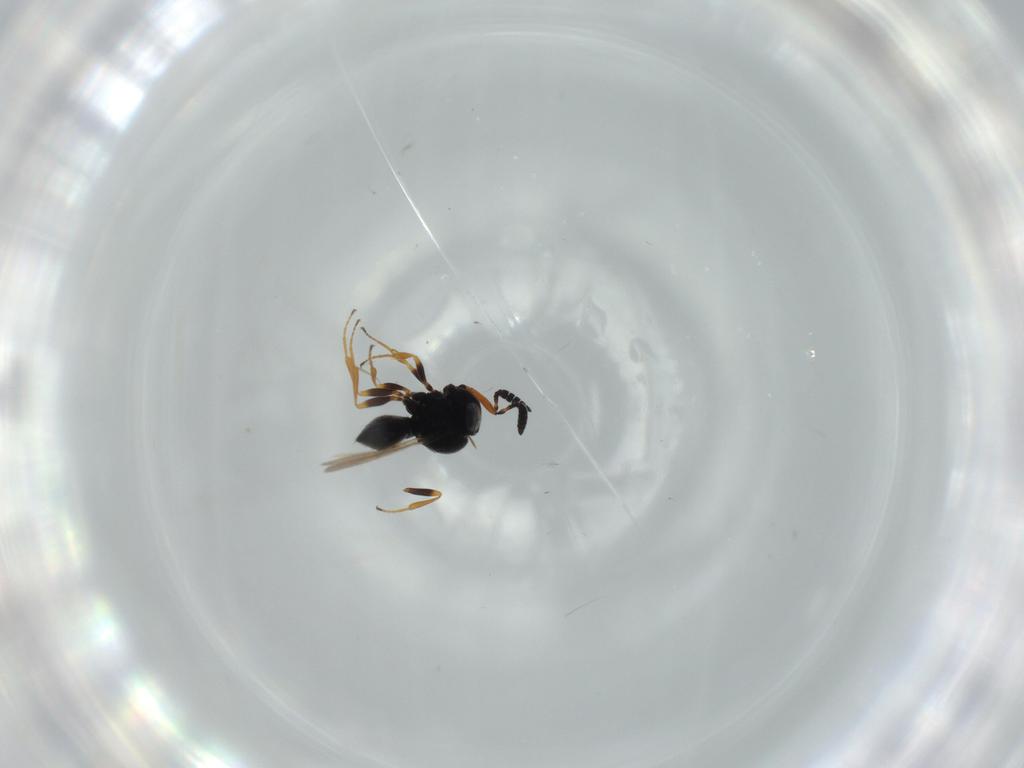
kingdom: Animalia
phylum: Arthropoda
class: Insecta
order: Hymenoptera
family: Scelionidae
